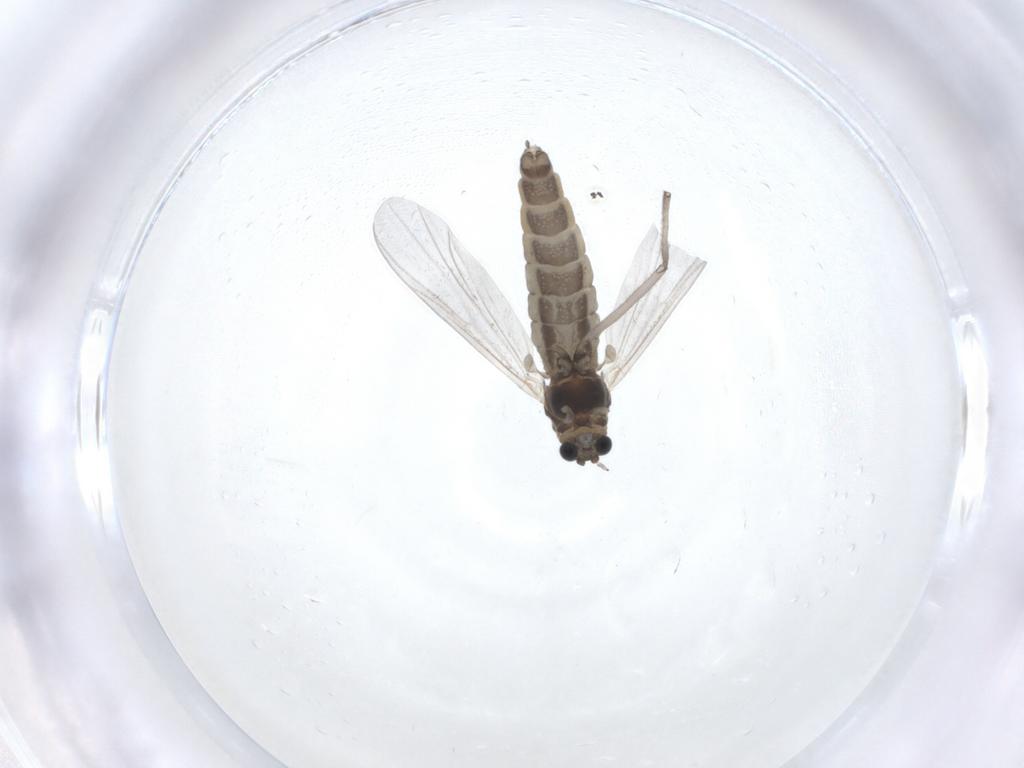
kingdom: Animalia
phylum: Arthropoda
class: Insecta
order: Diptera
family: Chironomidae
